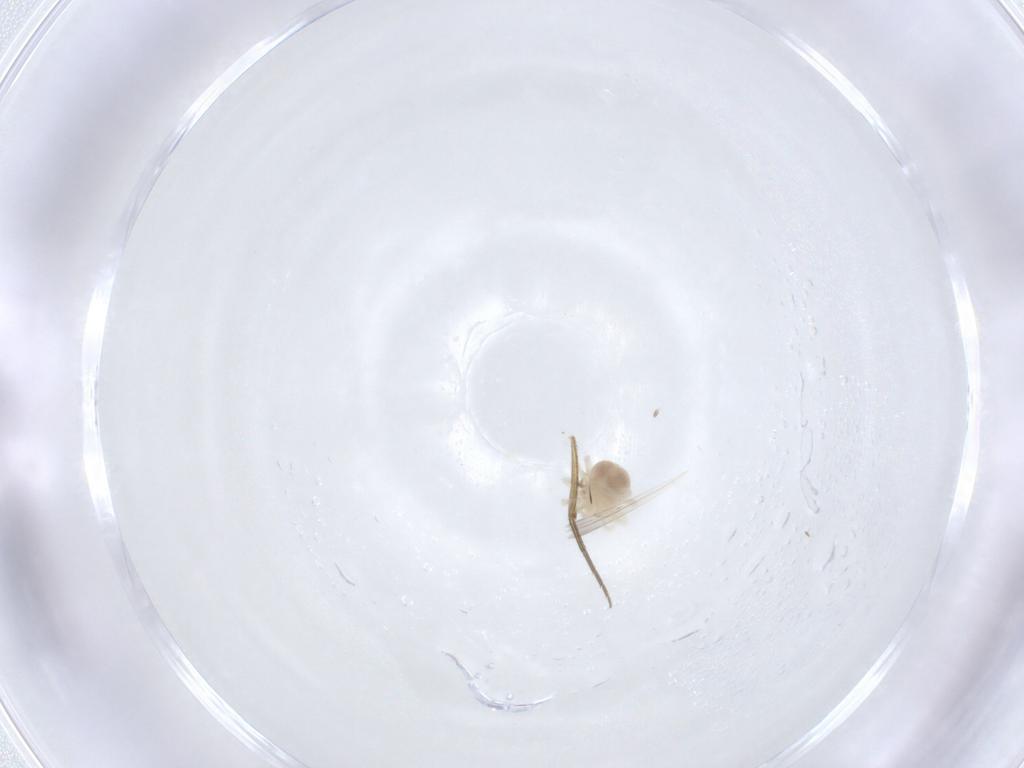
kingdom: Animalia
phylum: Arthropoda
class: Insecta
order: Diptera
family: Phoridae
